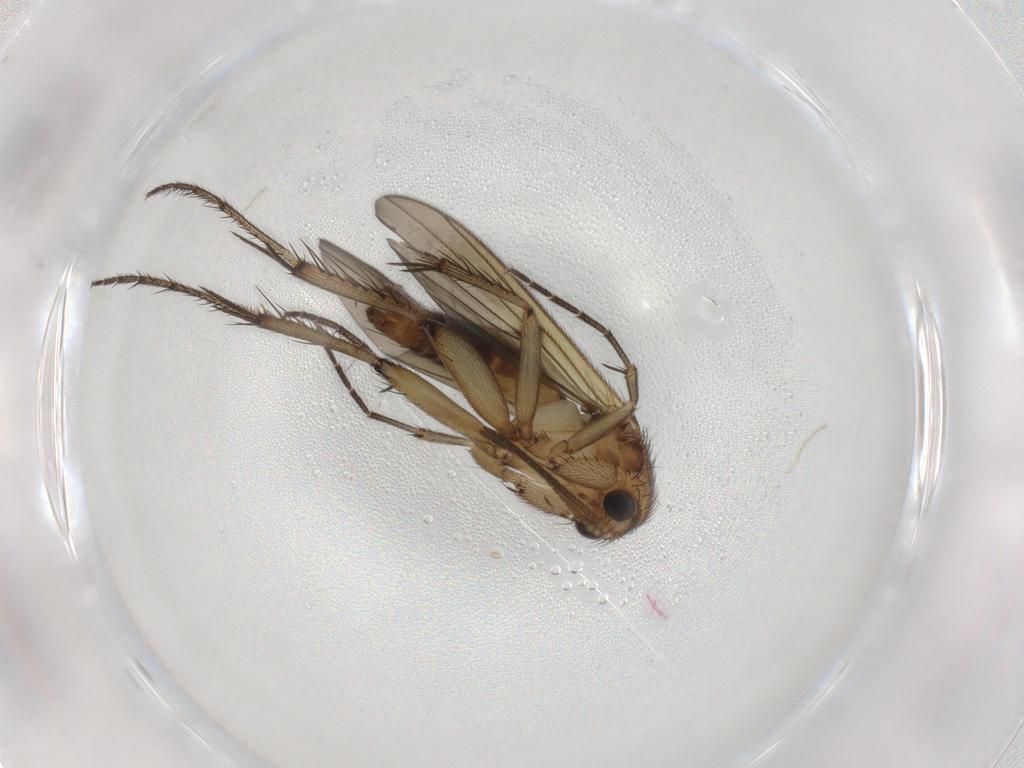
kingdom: Animalia
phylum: Arthropoda
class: Insecta
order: Diptera
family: Mycetophilidae
